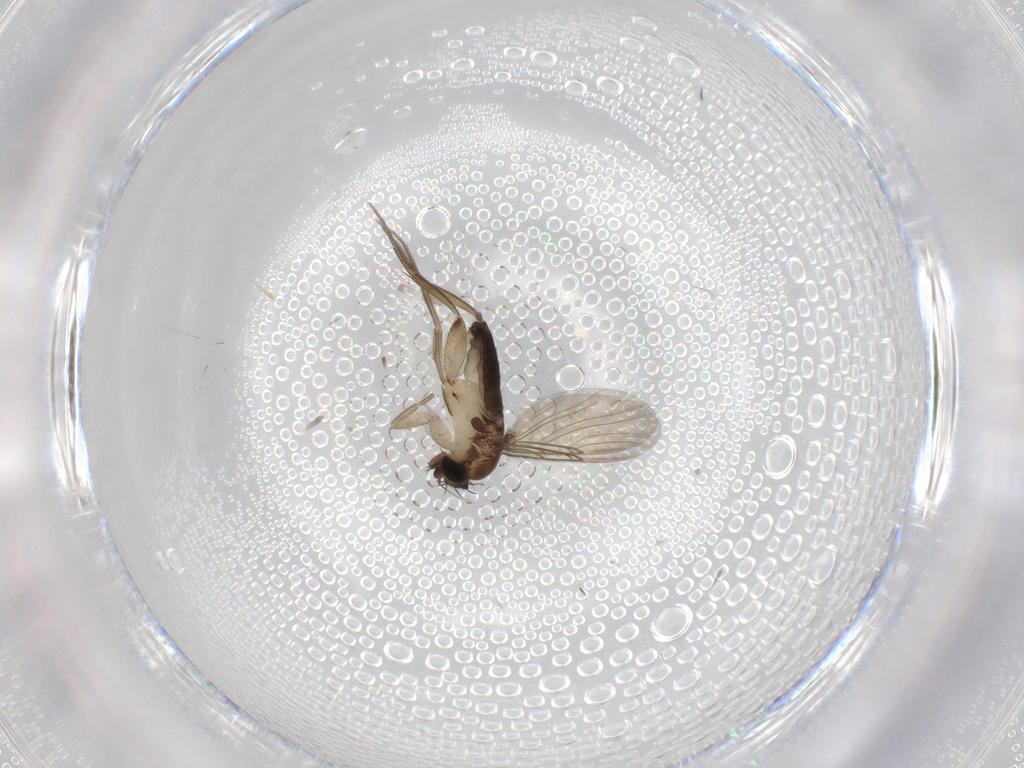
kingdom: Animalia
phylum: Arthropoda
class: Insecta
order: Diptera
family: Phoridae
